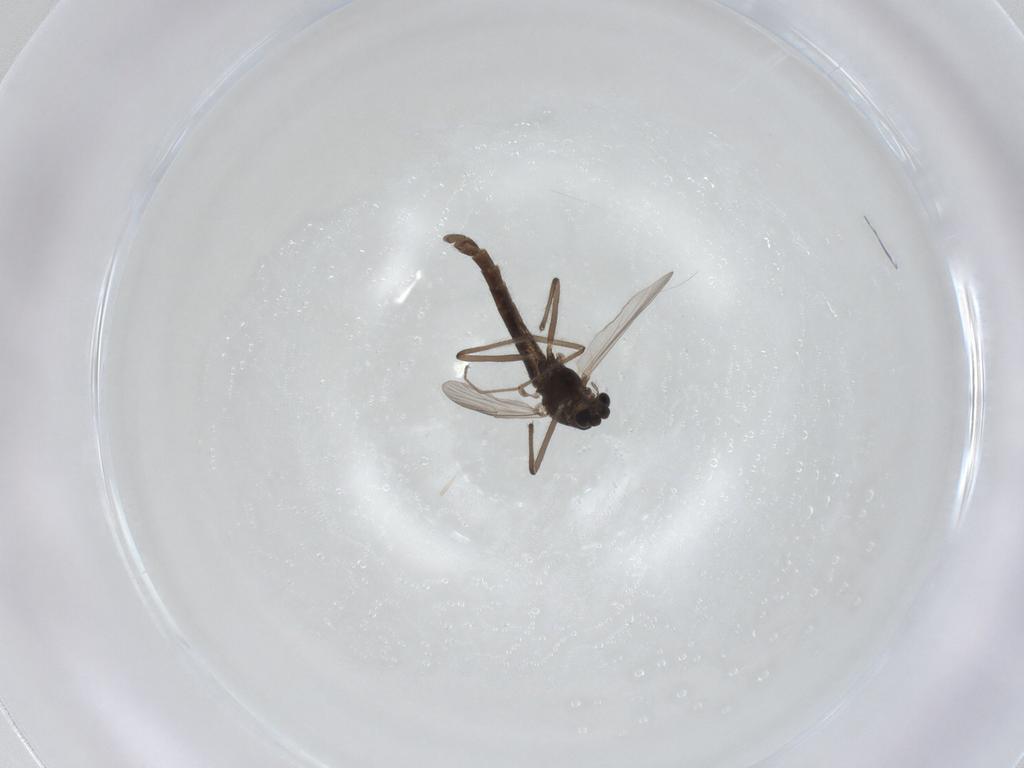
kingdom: Animalia
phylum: Arthropoda
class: Insecta
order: Diptera
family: Chironomidae
